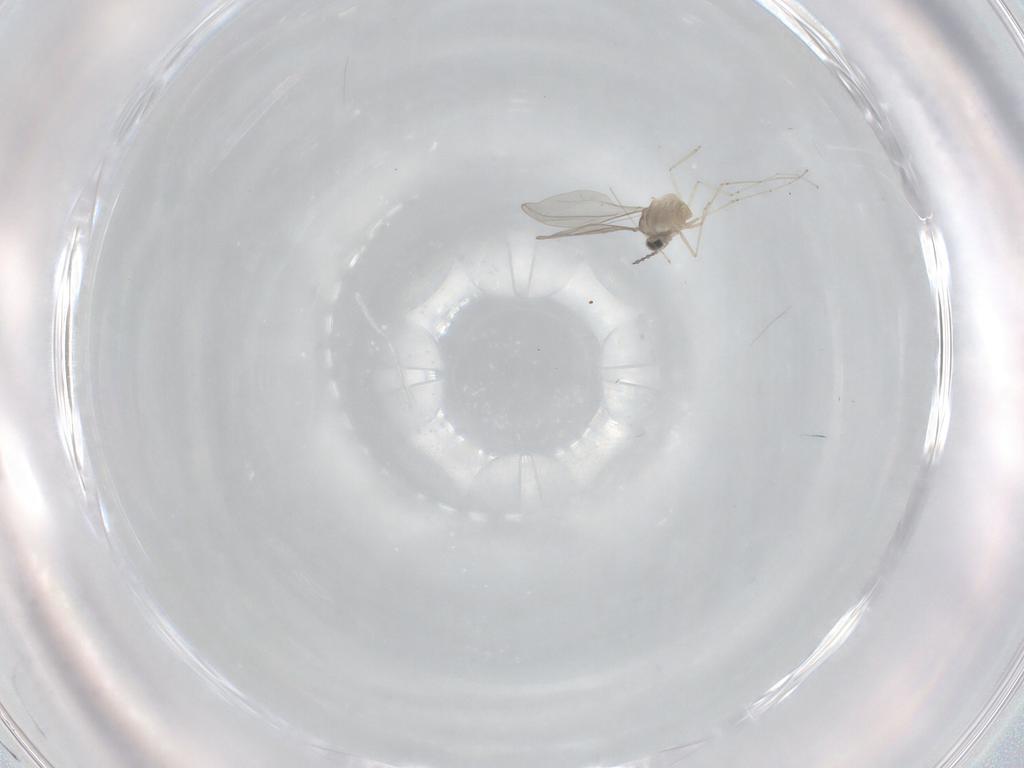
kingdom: Animalia
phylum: Arthropoda
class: Insecta
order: Diptera
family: Cecidomyiidae
